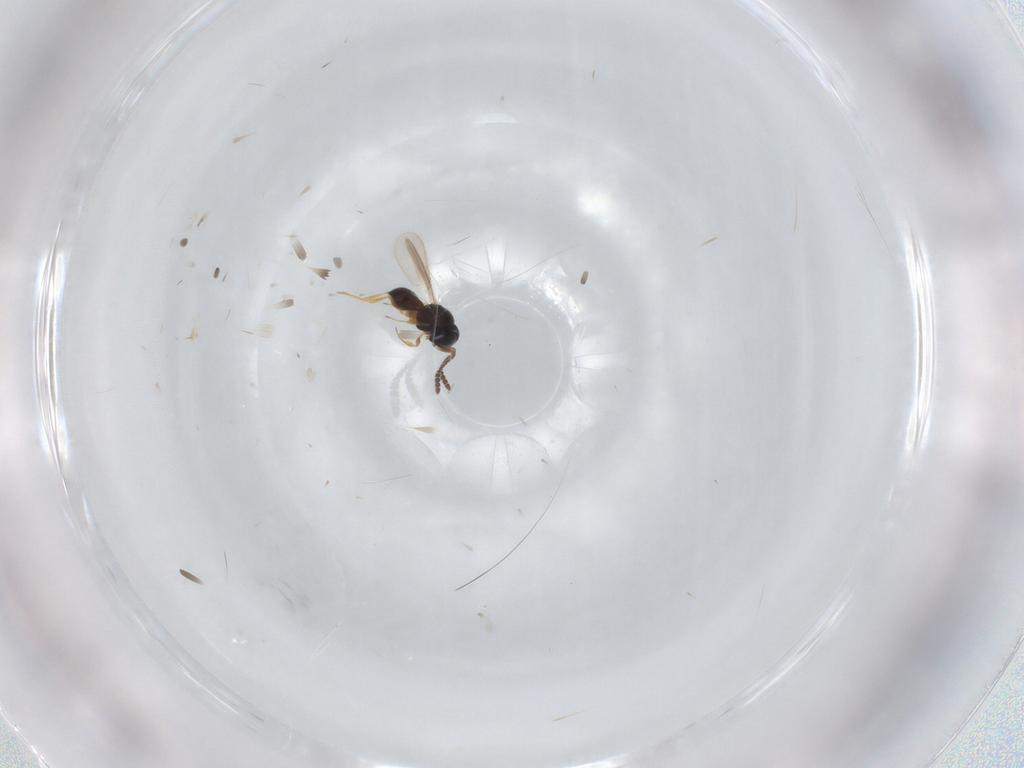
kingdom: Animalia
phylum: Arthropoda
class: Insecta
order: Hymenoptera
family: Scelionidae
